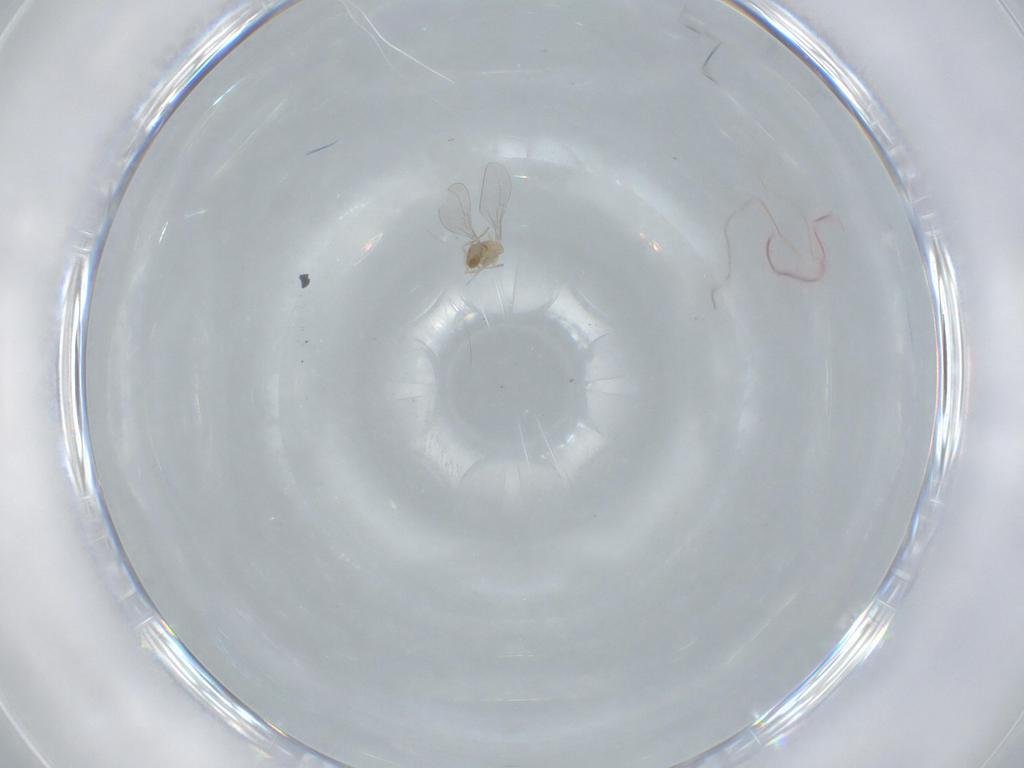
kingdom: Animalia
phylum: Arthropoda
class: Insecta
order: Diptera
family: Cecidomyiidae
